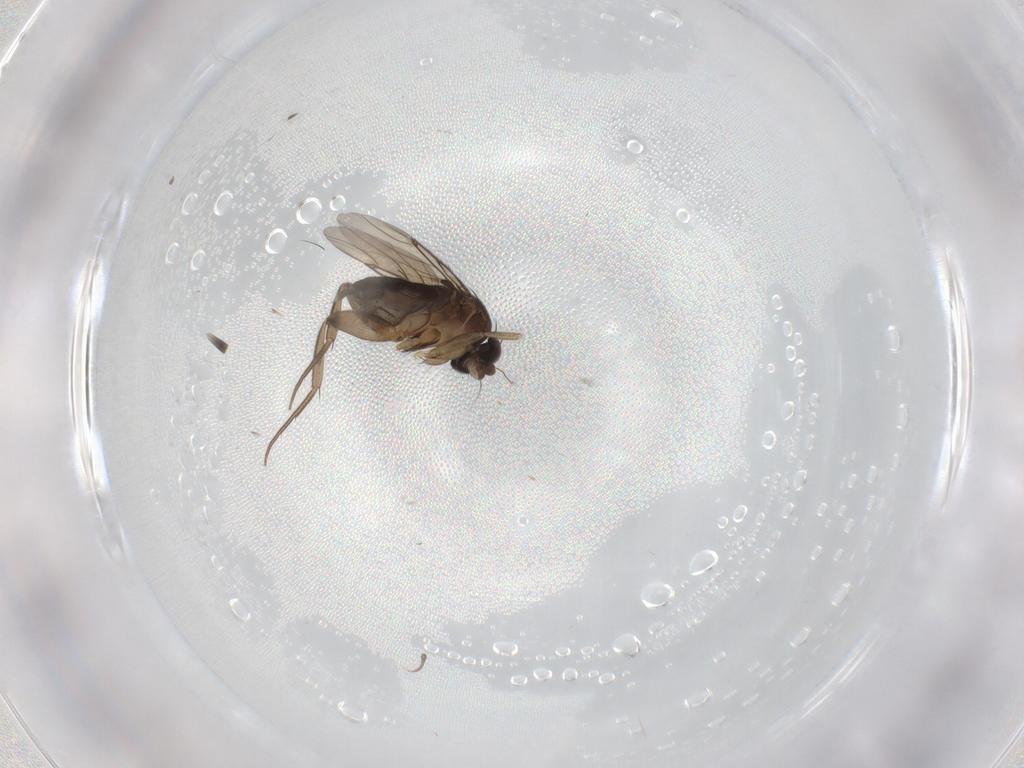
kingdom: Animalia
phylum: Arthropoda
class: Insecta
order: Diptera
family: Phoridae
